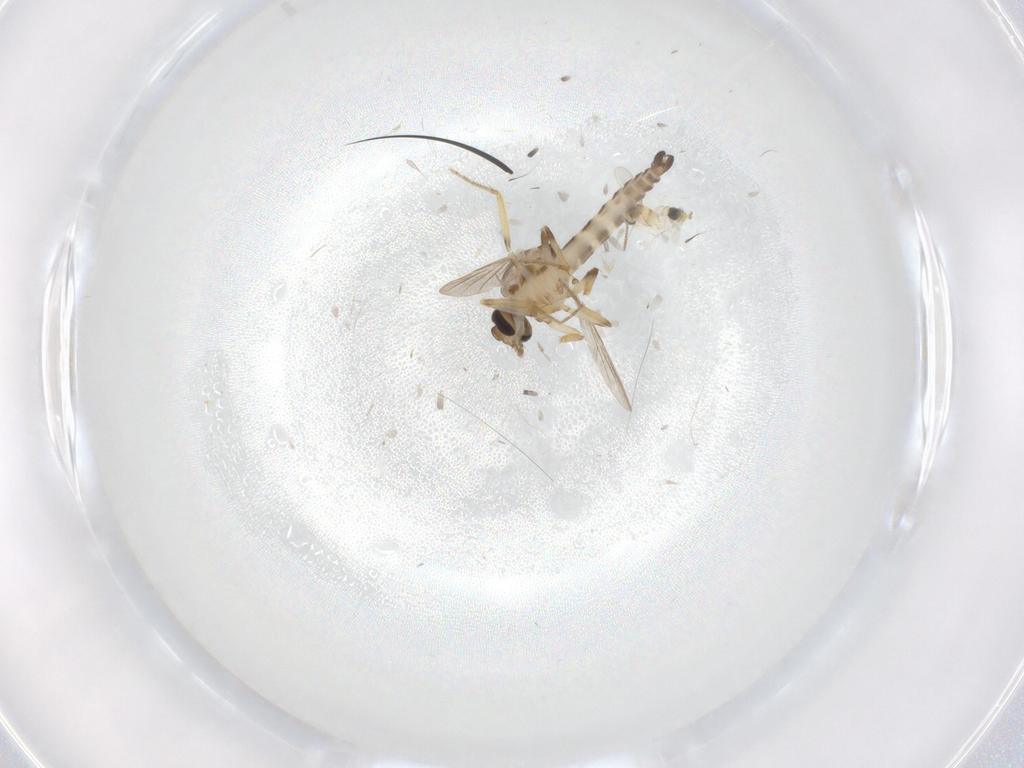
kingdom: Animalia
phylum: Arthropoda
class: Insecta
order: Diptera
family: Ceratopogonidae
